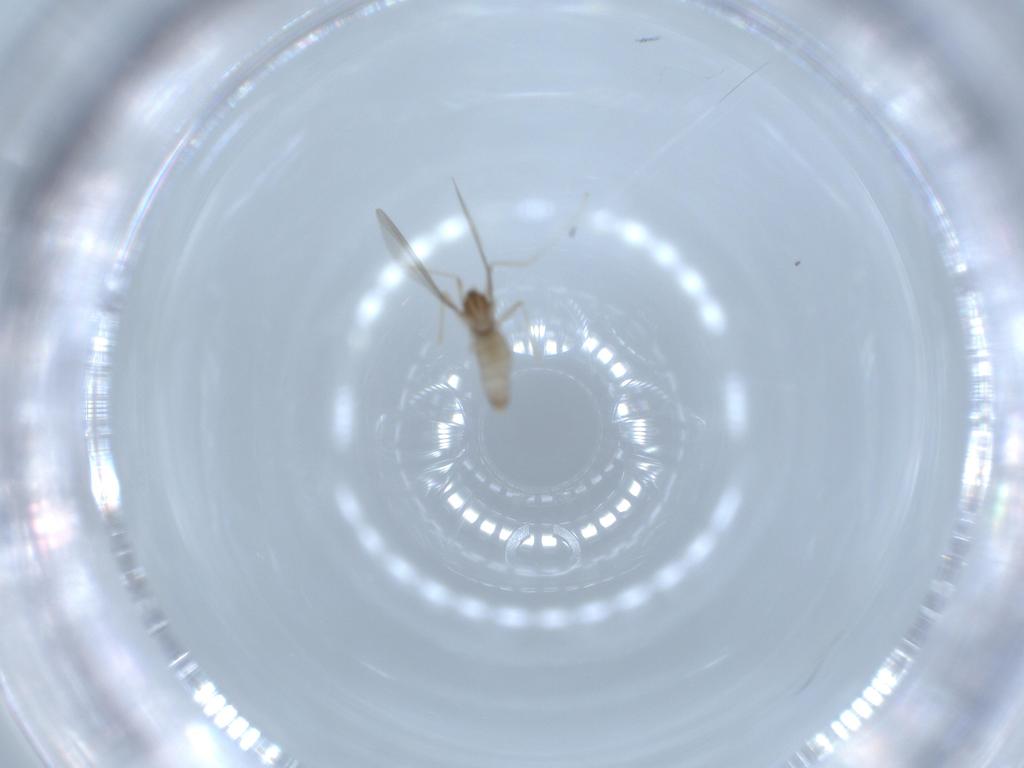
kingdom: Animalia
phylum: Arthropoda
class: Insecta
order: Diptera
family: Cecidomyiidae
